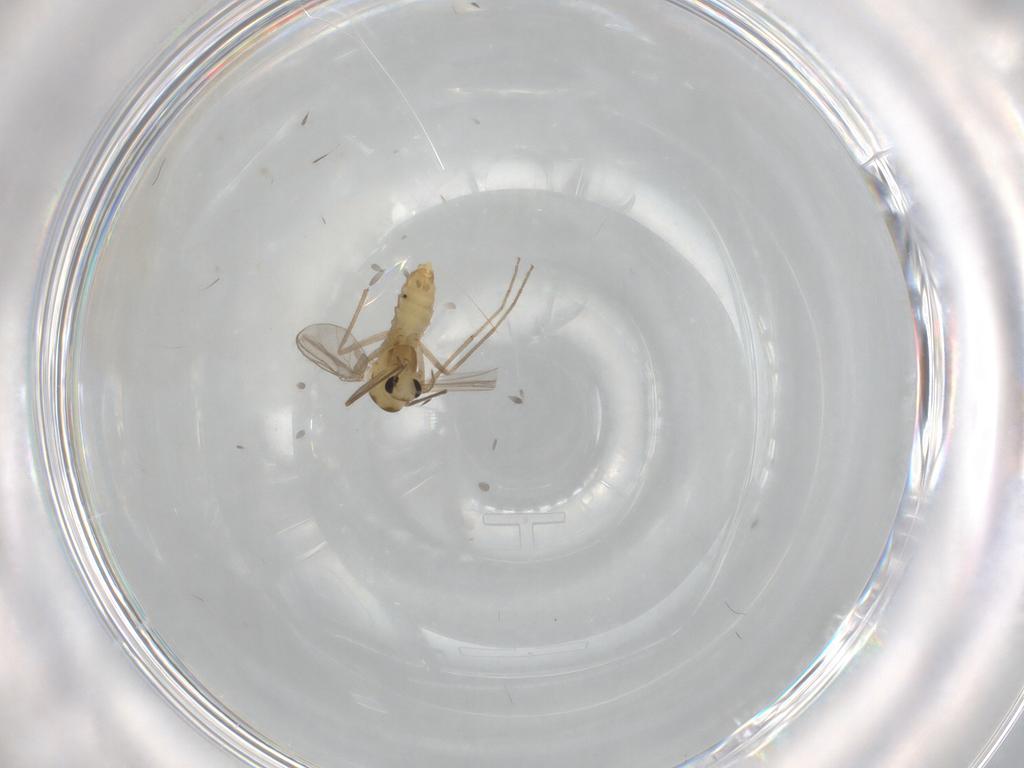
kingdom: Animalia
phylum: Arthropoda
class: Insecta
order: Diptera
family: Chironomidae
